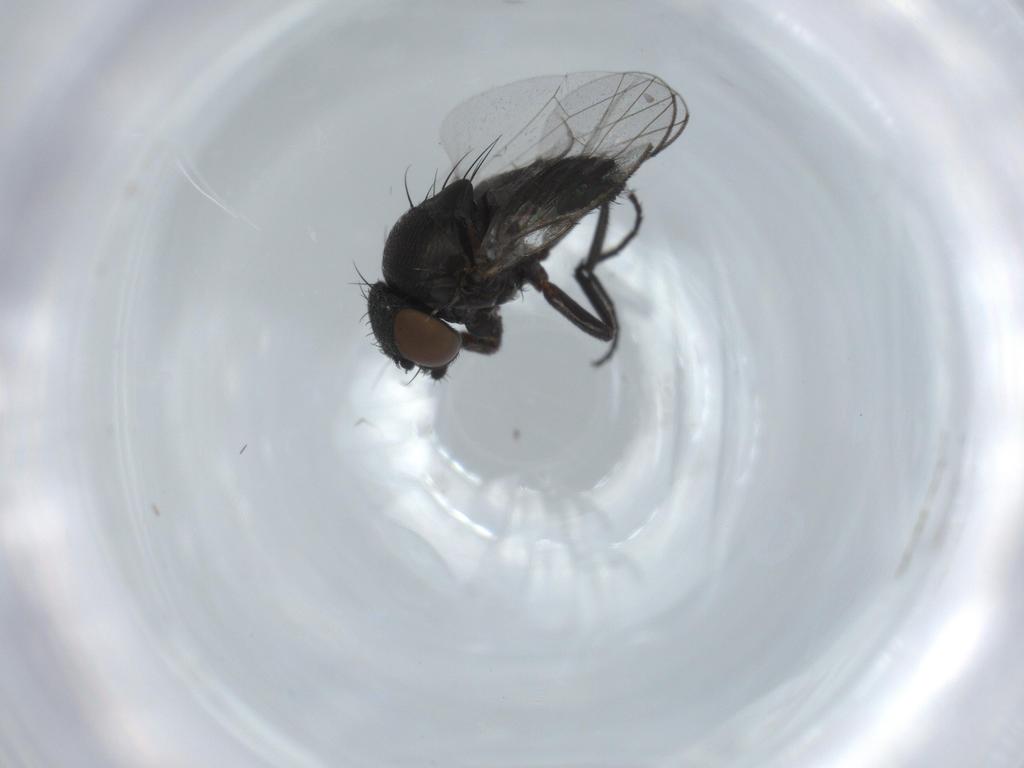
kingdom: Animalia
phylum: Arthropoda
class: Insecta
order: Diptera
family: Milichiidae
